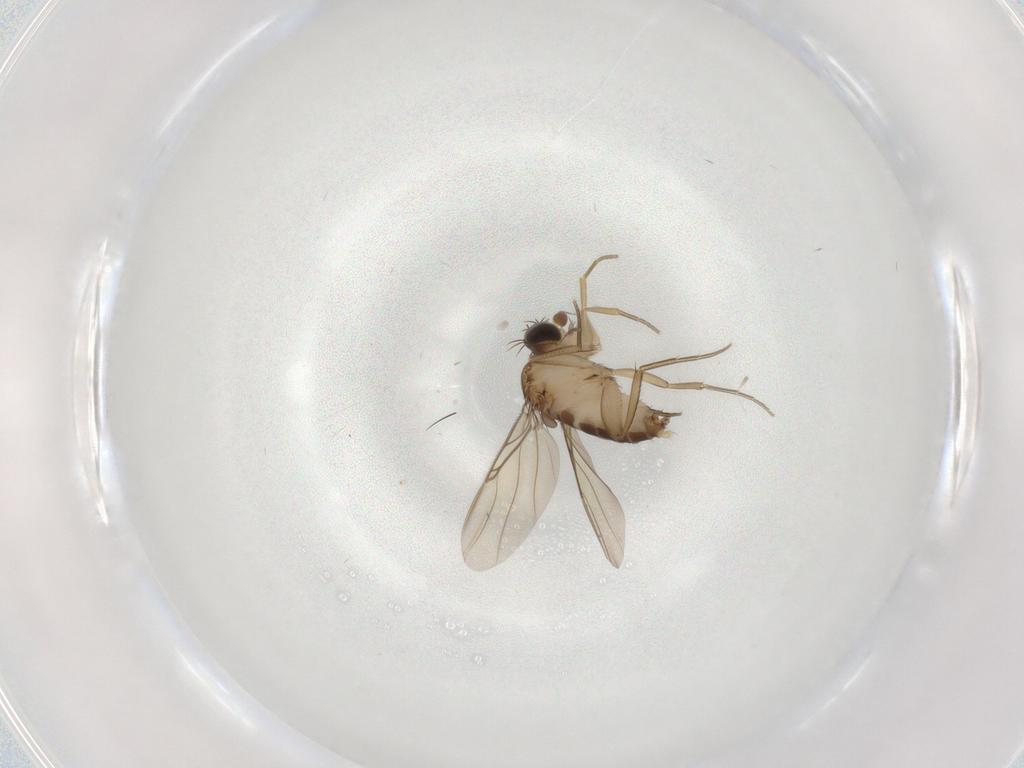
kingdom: Animalia
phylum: Arthropoda
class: Insecta
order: Diptera
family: Phoridae
